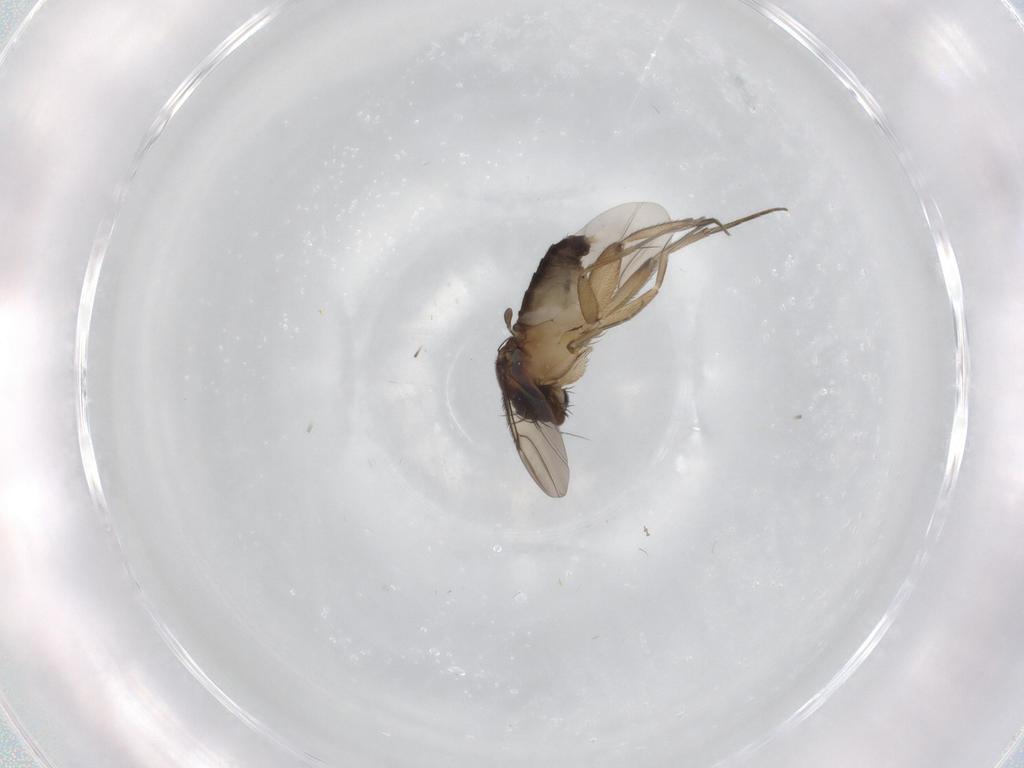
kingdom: Animalia
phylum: Arthropoda
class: Insecta
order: Diptera
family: Phoridae
